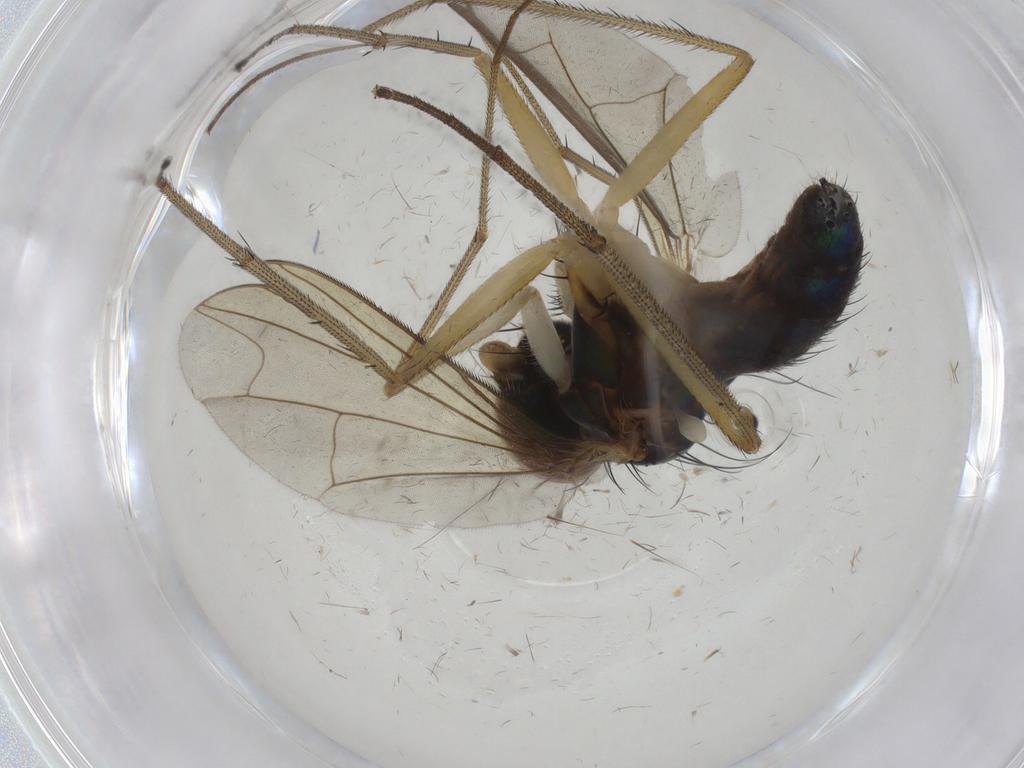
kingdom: Animalia
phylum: Arthropoda
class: Insecta
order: Diptera
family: Dolichopodidae
